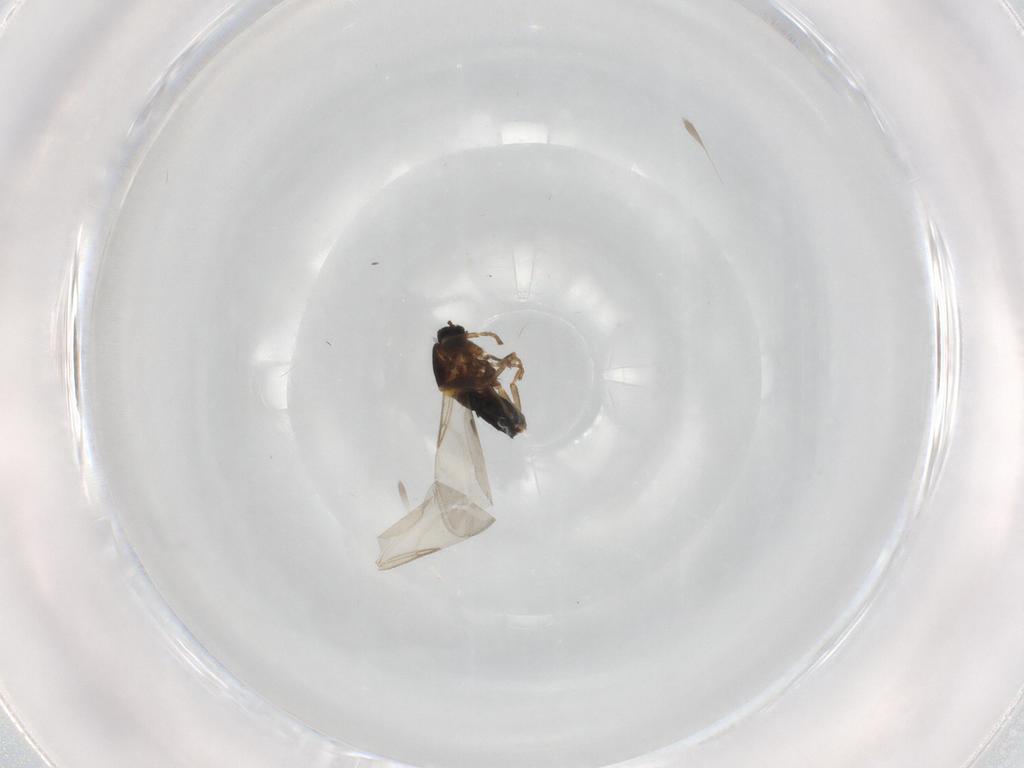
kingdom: Animalia
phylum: Arthropoda
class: Insecta
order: Diptera
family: Scatopsidae
